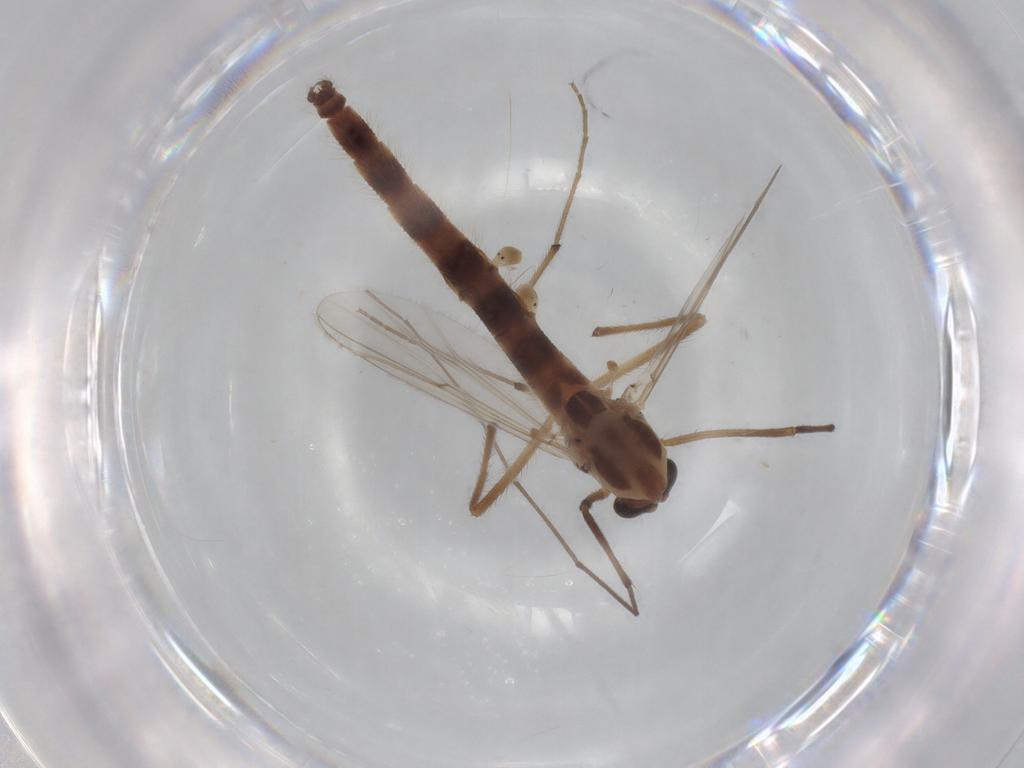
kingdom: Animalia
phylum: Arthropoda
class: Insecta
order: Diptera
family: Chironomidae
